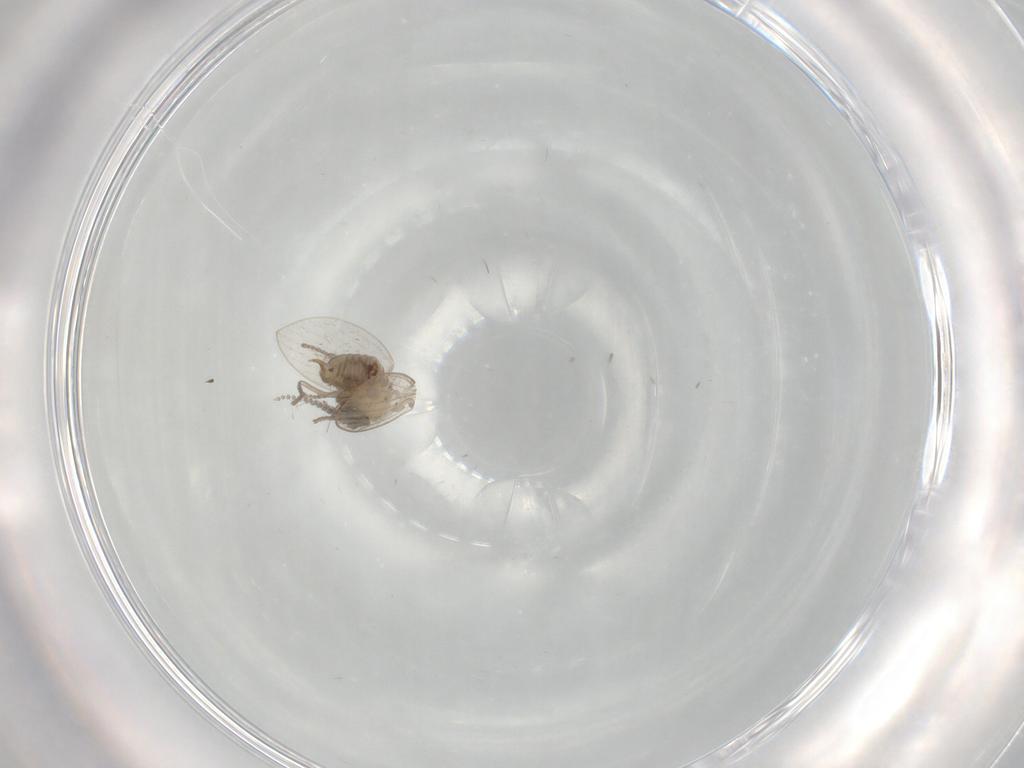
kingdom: Animalia
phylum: Arthropoda
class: Insecta
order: Diptera
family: Psychodidae
